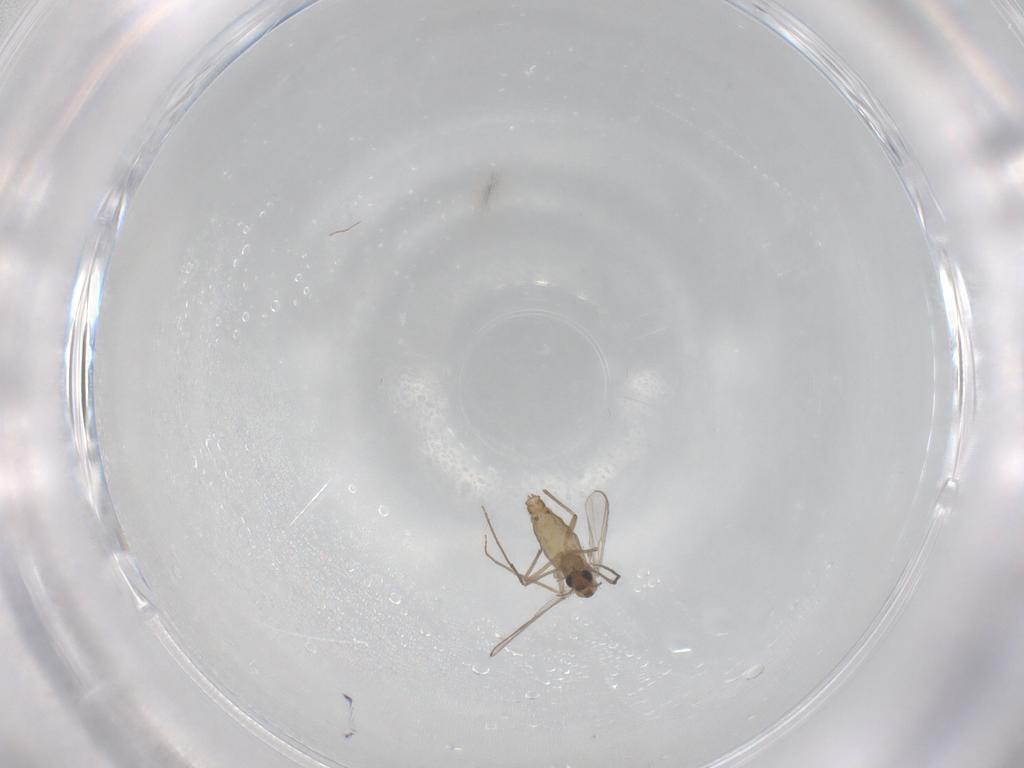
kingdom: Animalia
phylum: Arthropoda
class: Insecta
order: Diptera
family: Chironomidae
